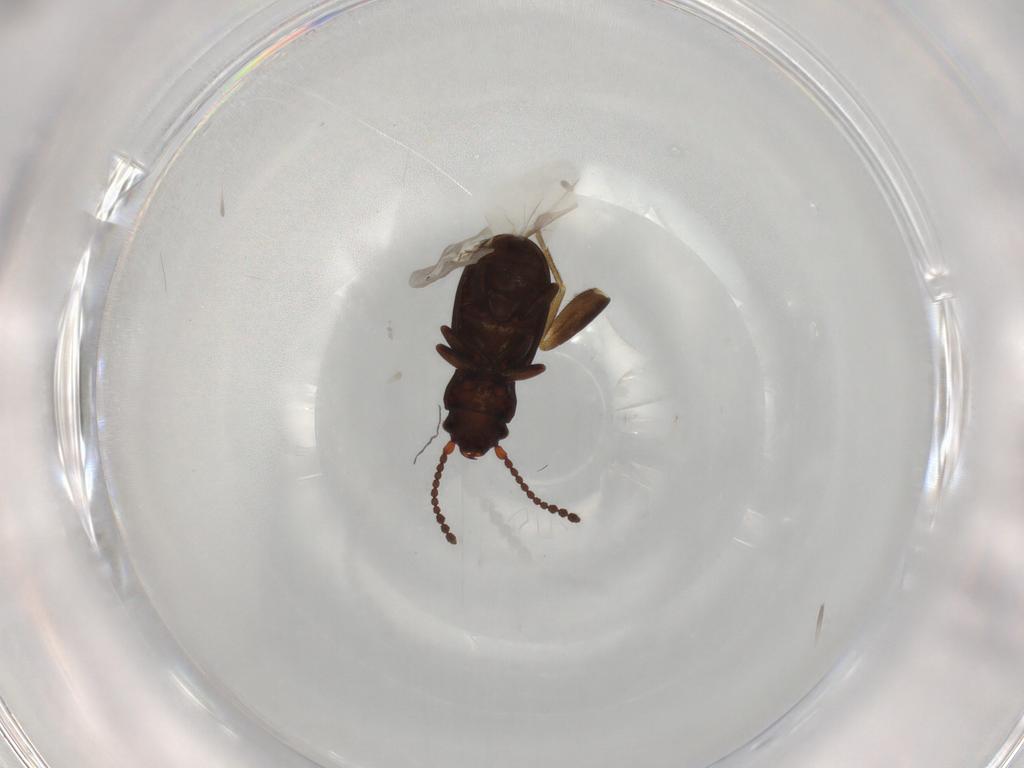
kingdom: Animalia
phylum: Arthropoda
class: Insecta
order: Coleoptera
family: Laemophloeidae
